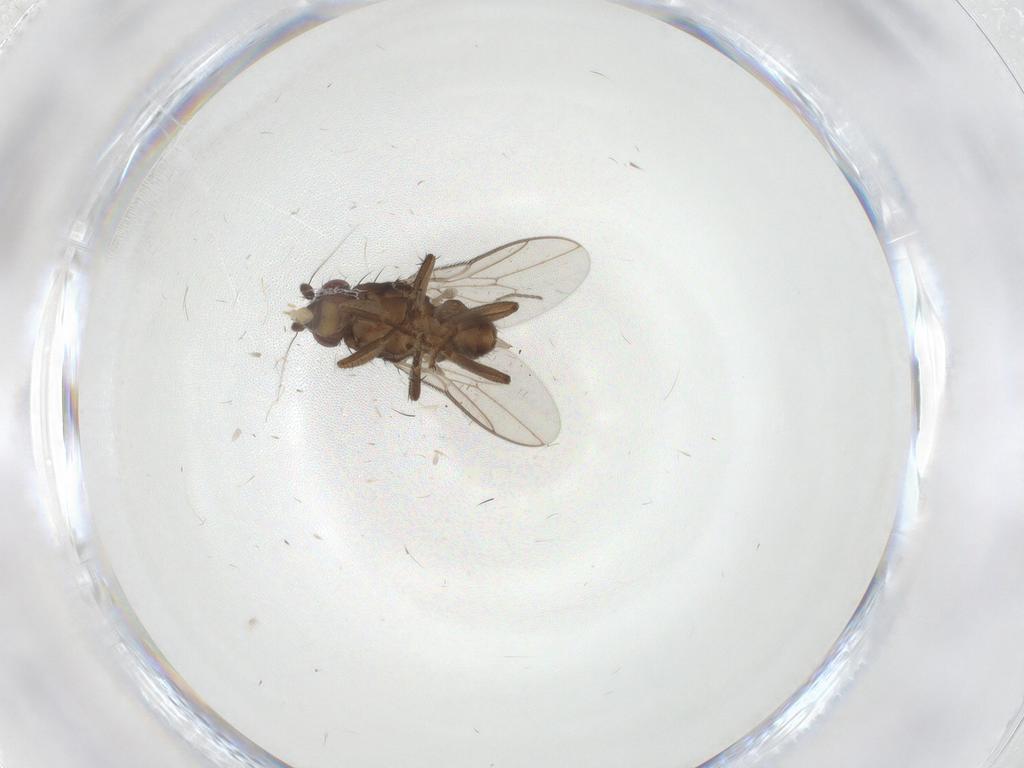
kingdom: Animalia
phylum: Arthropoda
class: Insecta
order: Diptera
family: Sphaeroceridae
